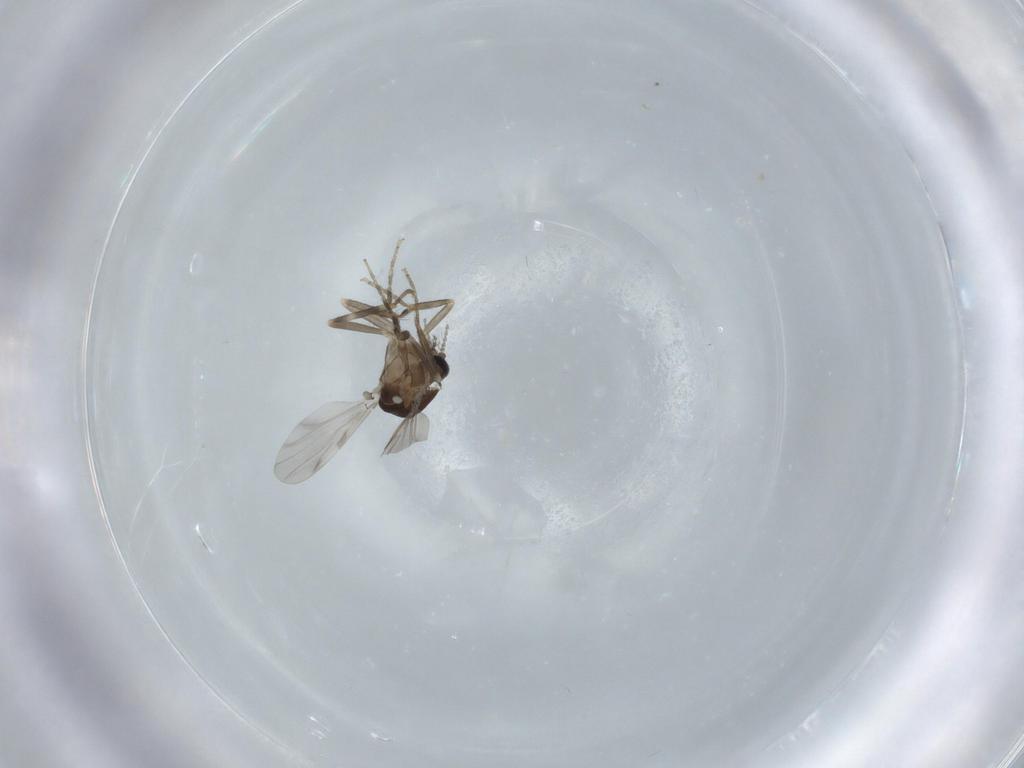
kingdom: Animalia
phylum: Arthropoda
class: Insecta
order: Diptera
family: Ceratopogonidae
